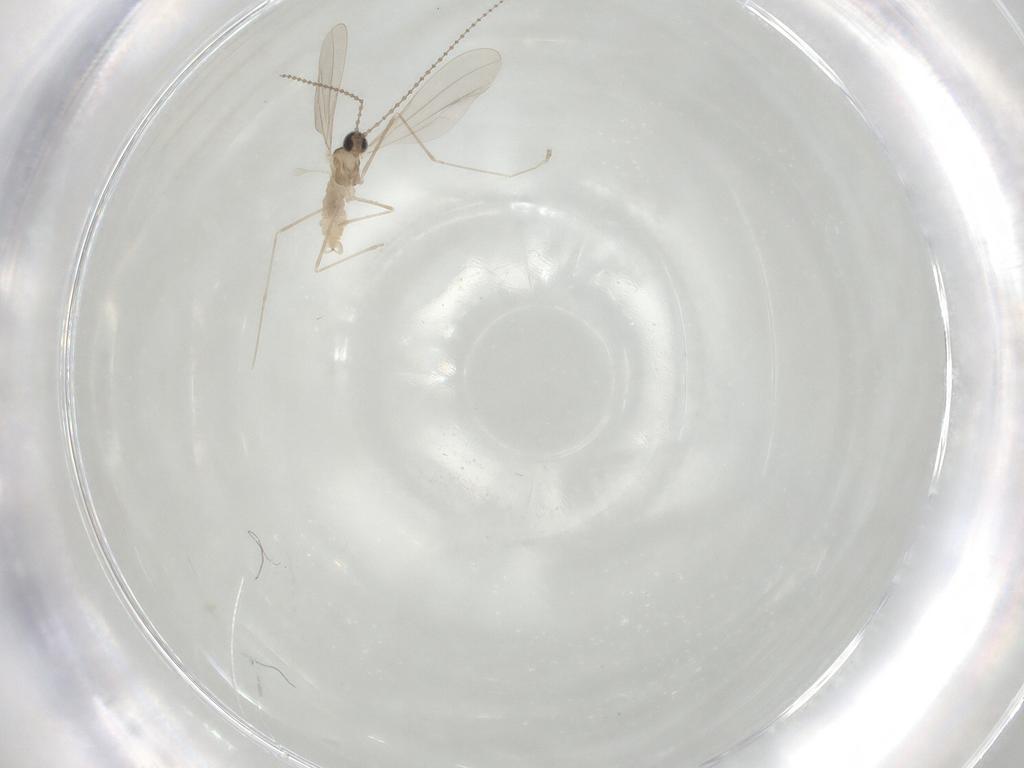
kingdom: Animalia
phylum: Arthropoda
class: Insecta
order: Diptera
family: Cecidomyiidae
